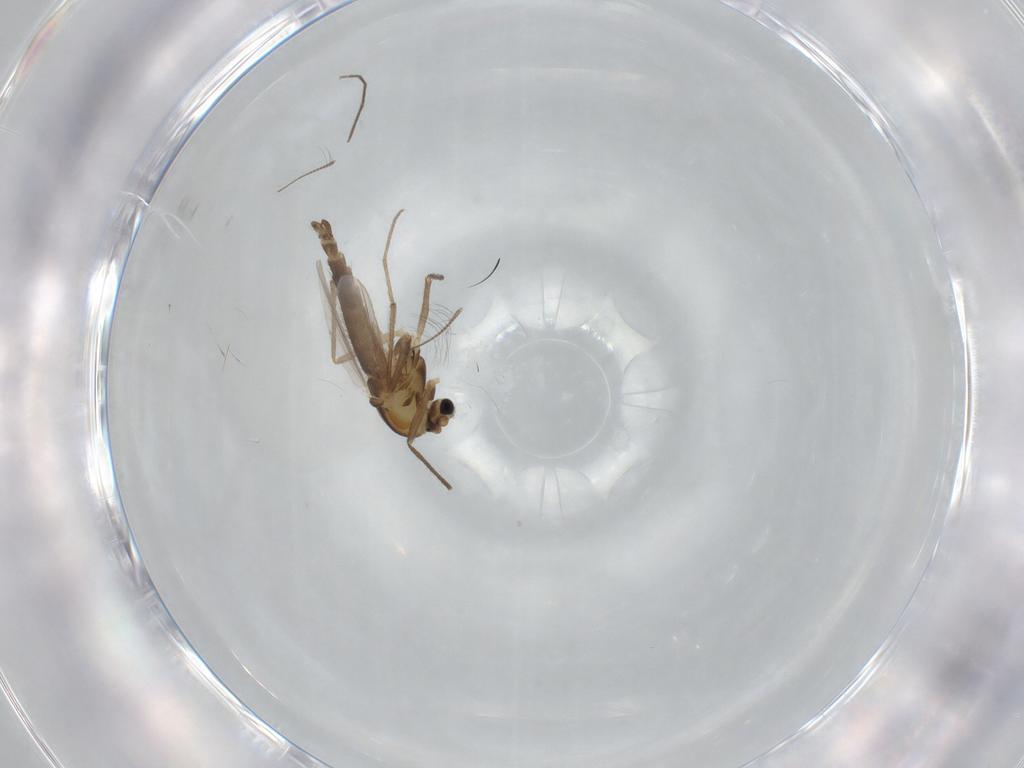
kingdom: Animalia
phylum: Arthropoda
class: Insecta
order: Diptera
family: Chironomidae
